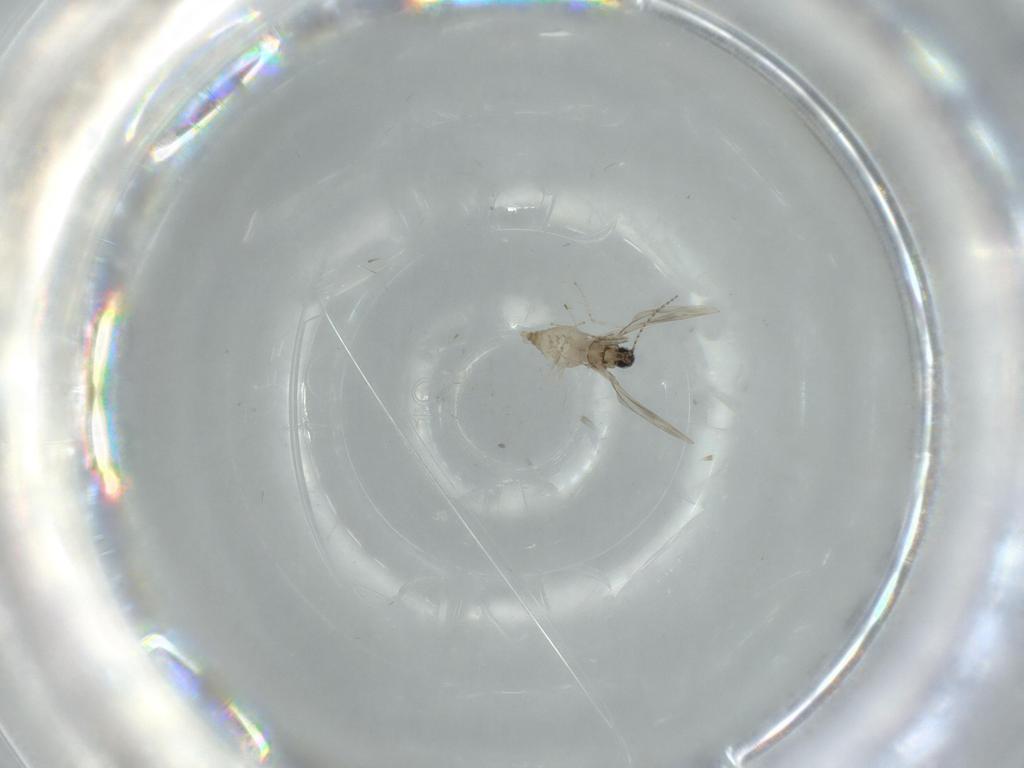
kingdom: Animalia
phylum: Arthropoda
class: Insecta
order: Diptera
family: Cecidomyiidae
